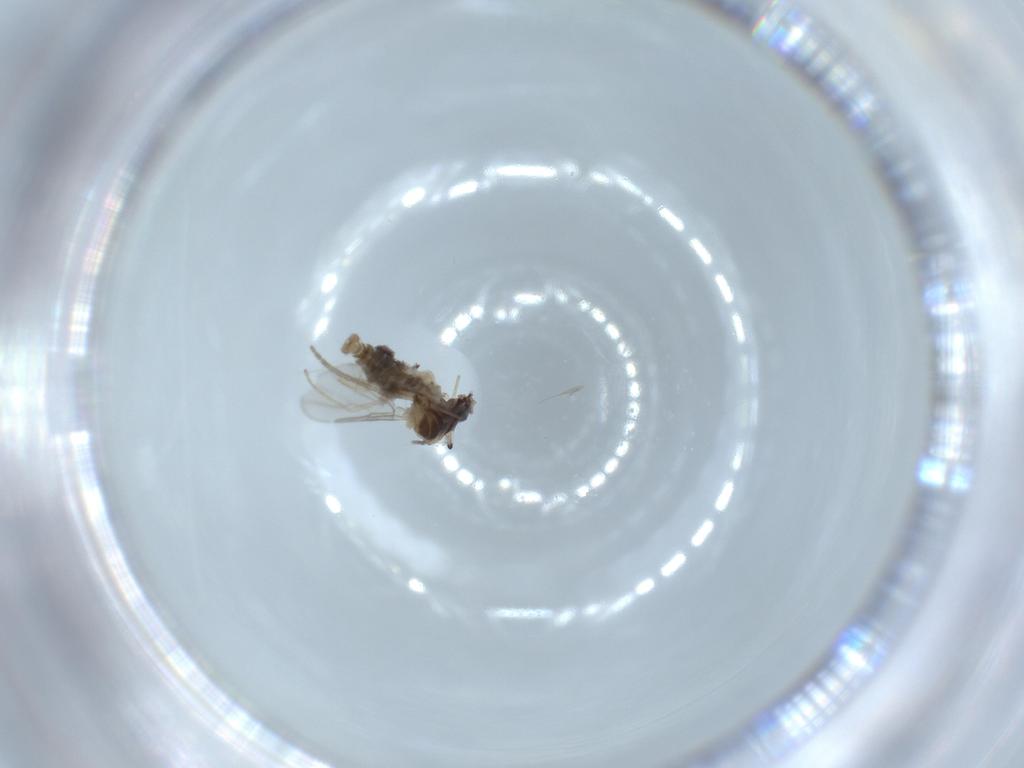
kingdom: Animalia
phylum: Arthropoda
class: Insecta
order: Diptera
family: Chironomidae
